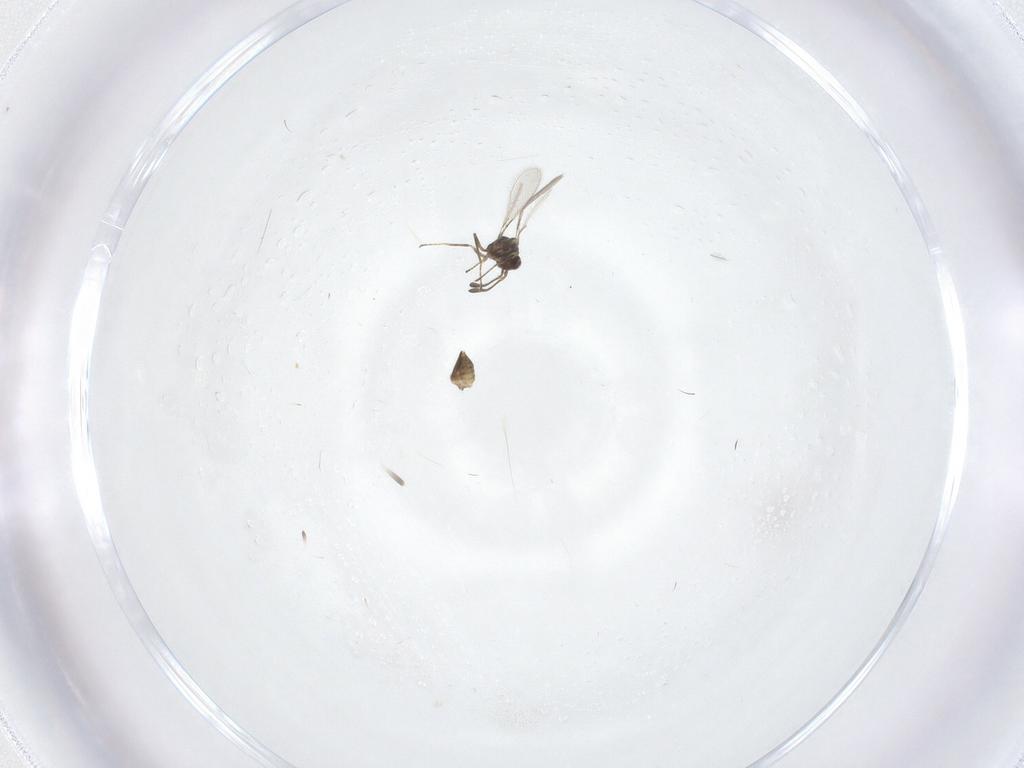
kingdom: Animalia
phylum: Arthropoda
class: Insecta
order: Hymenoptera
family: Mymaridae
